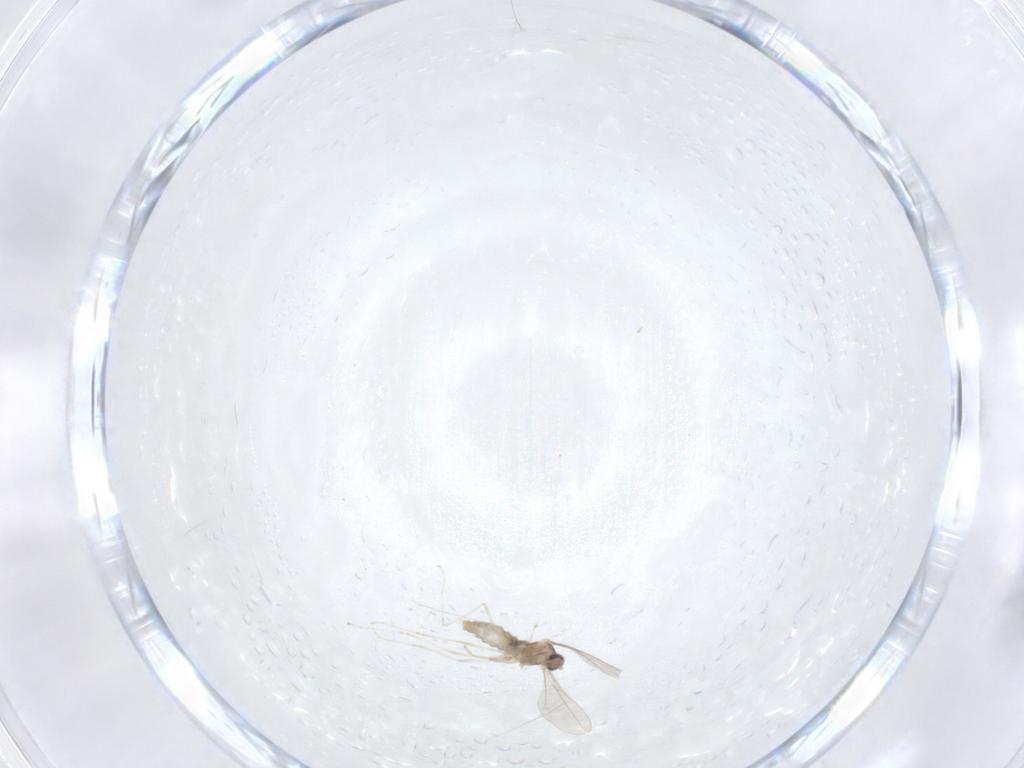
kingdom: Animalia
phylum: Arthropoda
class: Insecta
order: Diptera
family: Cecidomyiidae
